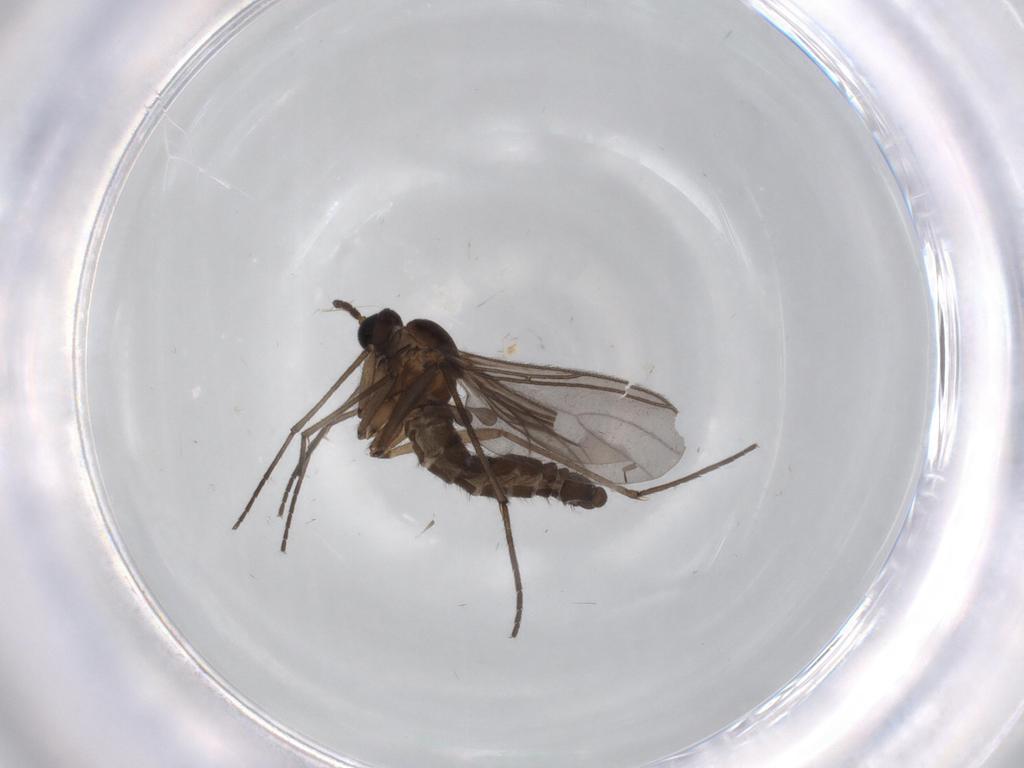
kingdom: Animalia
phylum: Arthropoda
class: Insecta
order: Diptera
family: Sciaridae
